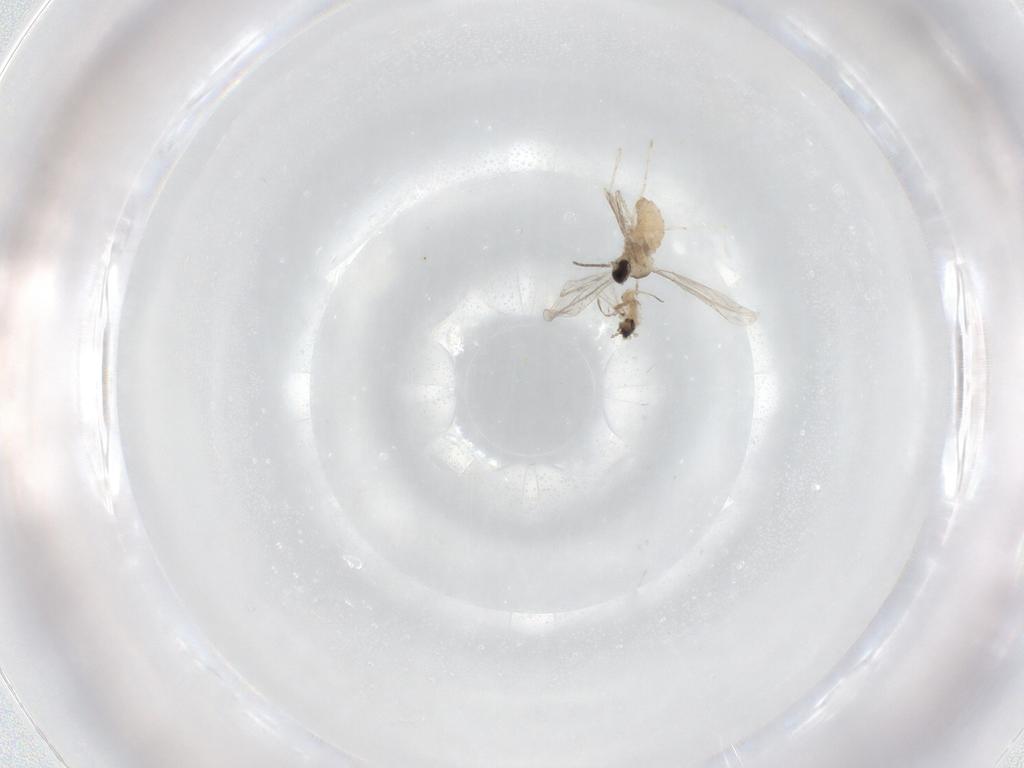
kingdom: Animalia
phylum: Arthropoda
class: Insecta
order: Diptera
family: Cecidomyiidae
